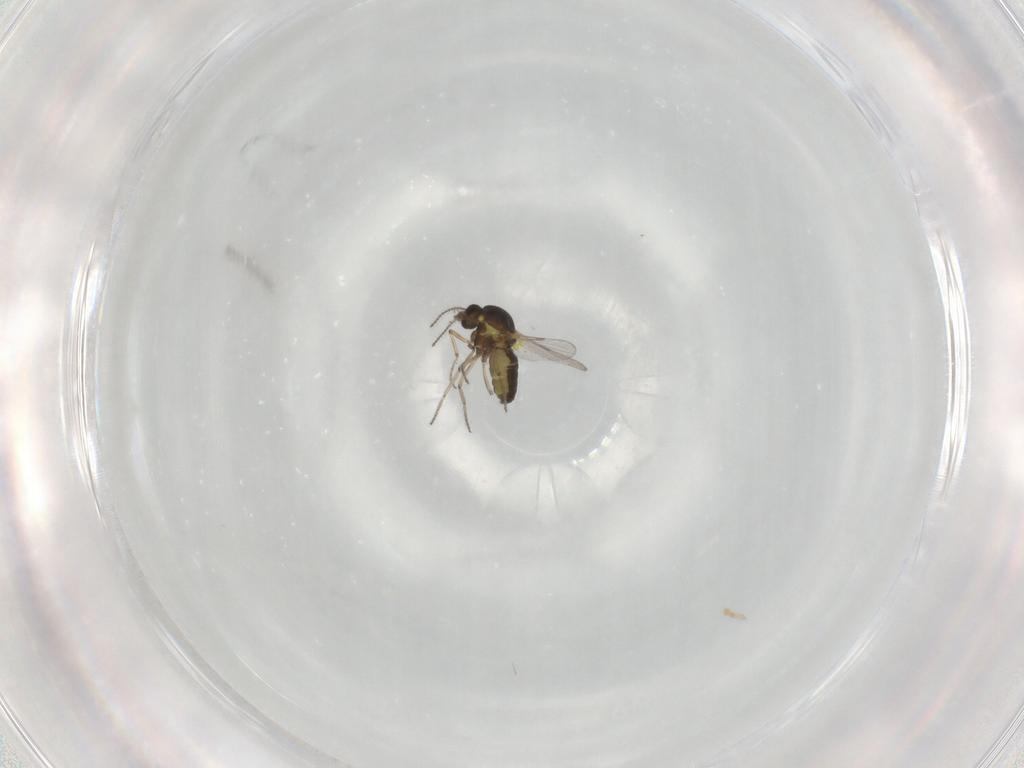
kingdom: Animalia
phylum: Arthropoda
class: Insecta
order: Diptera
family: Ceratopogonidae
